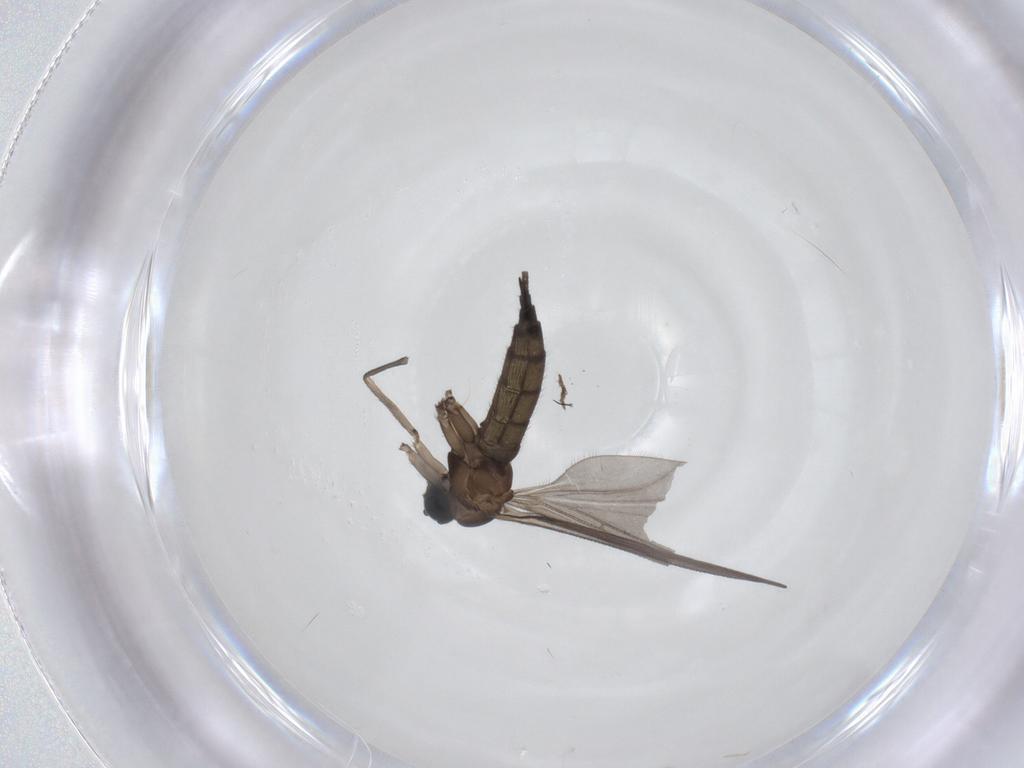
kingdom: Animalia
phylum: Arthropoda
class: Insecta
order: Diptera
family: Sciaridae
